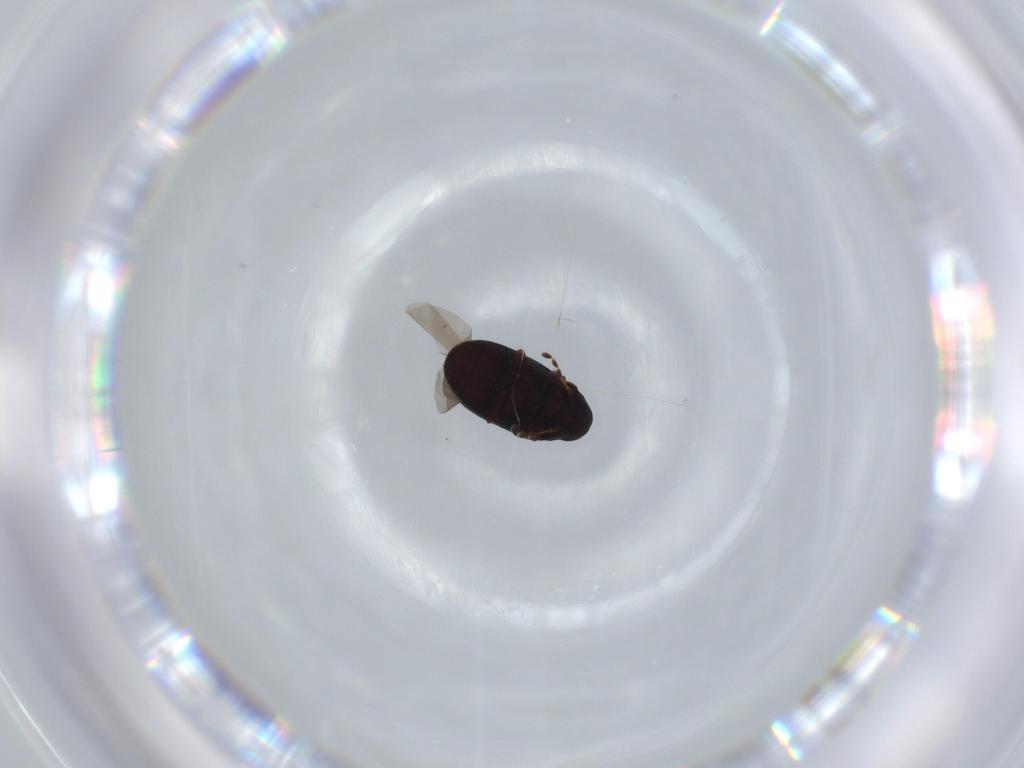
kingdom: Animalia
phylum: Arthropoda
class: Insecta
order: Coleoptera
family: Ptinidae
